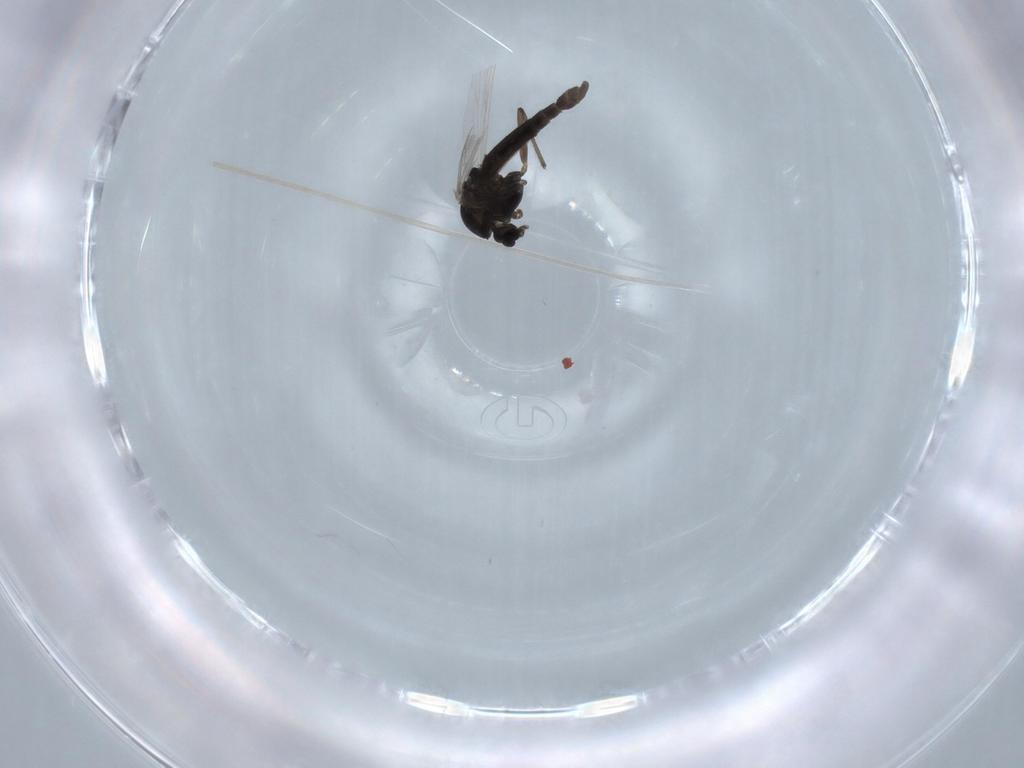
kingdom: Animalia
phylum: Arthropoda
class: Insecta
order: Diptera
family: Chironomidae
